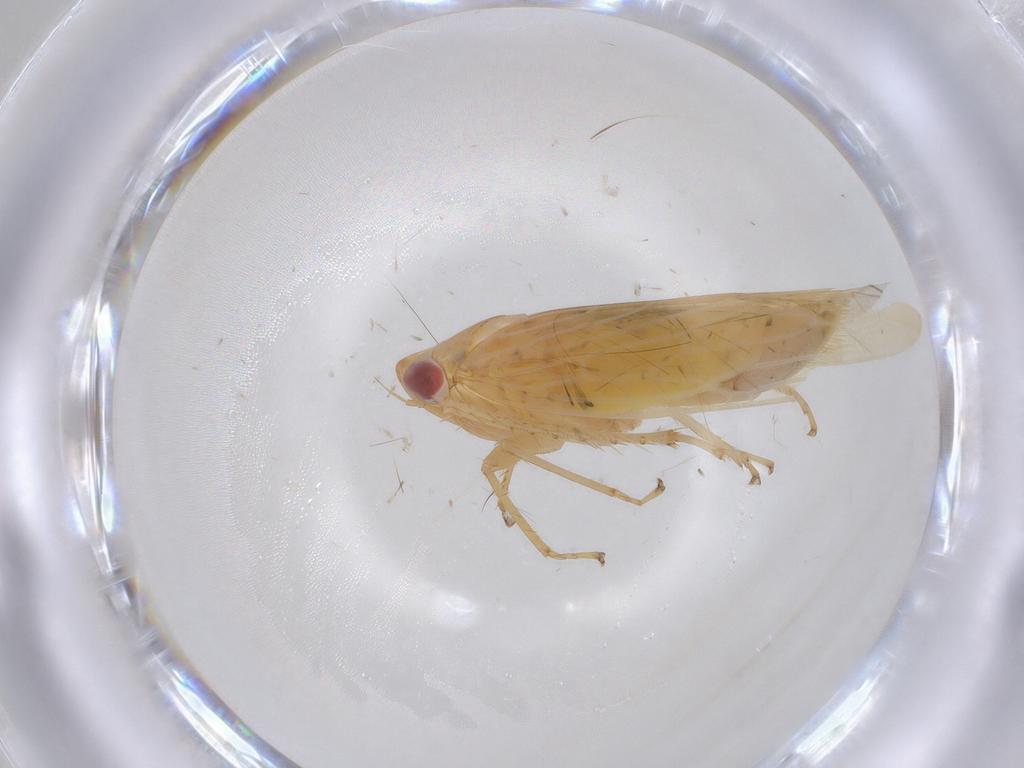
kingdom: Animalia
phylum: Arthropoda
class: Insecta
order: Hemiptera
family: Cicadellidae
